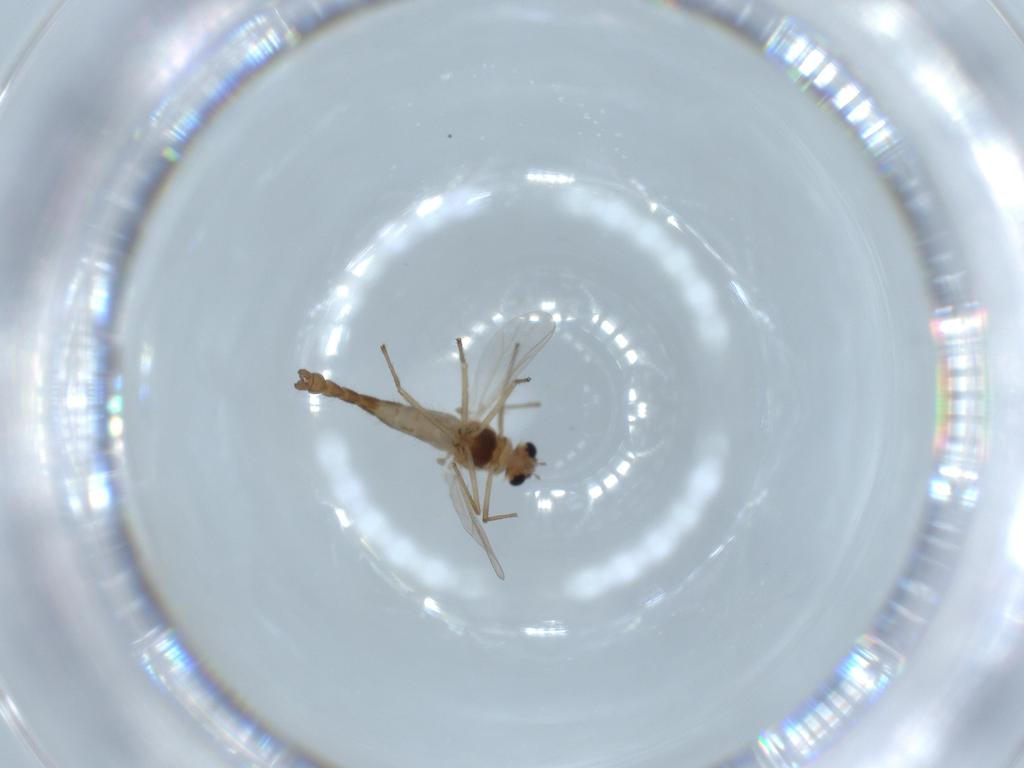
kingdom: Animalia
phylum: Arthropoda
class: Insecta
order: Diptera
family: Chironomidae
